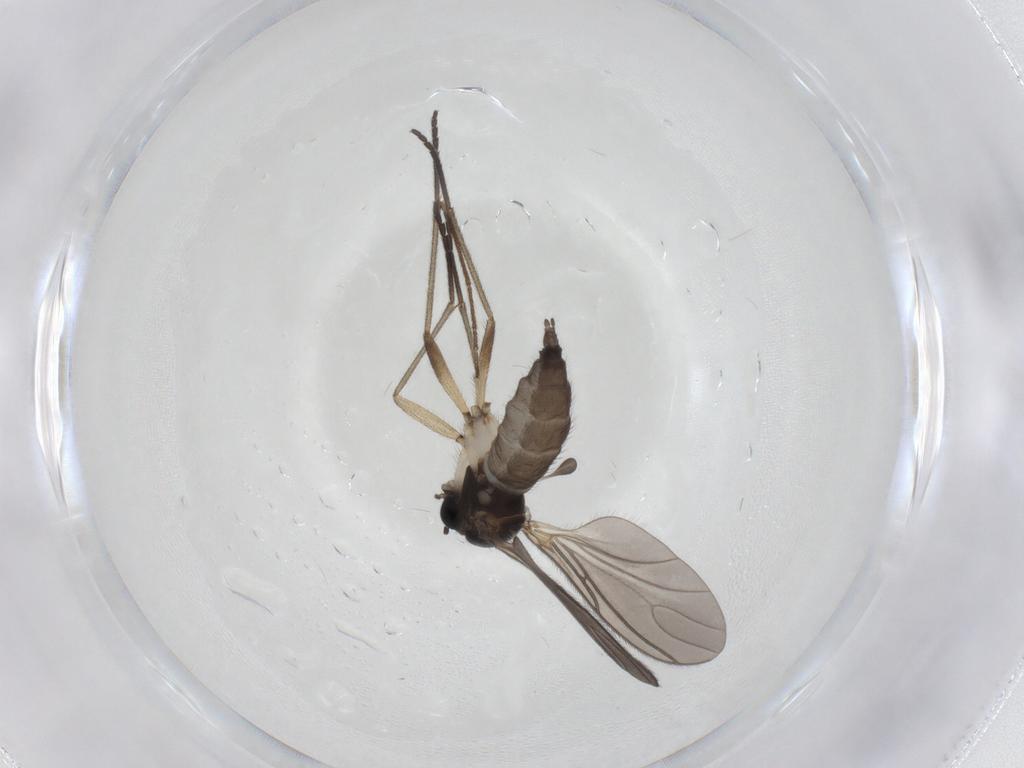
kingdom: Animalia
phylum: Arthropoda
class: Insecta
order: Diptera
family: Sciaridae
